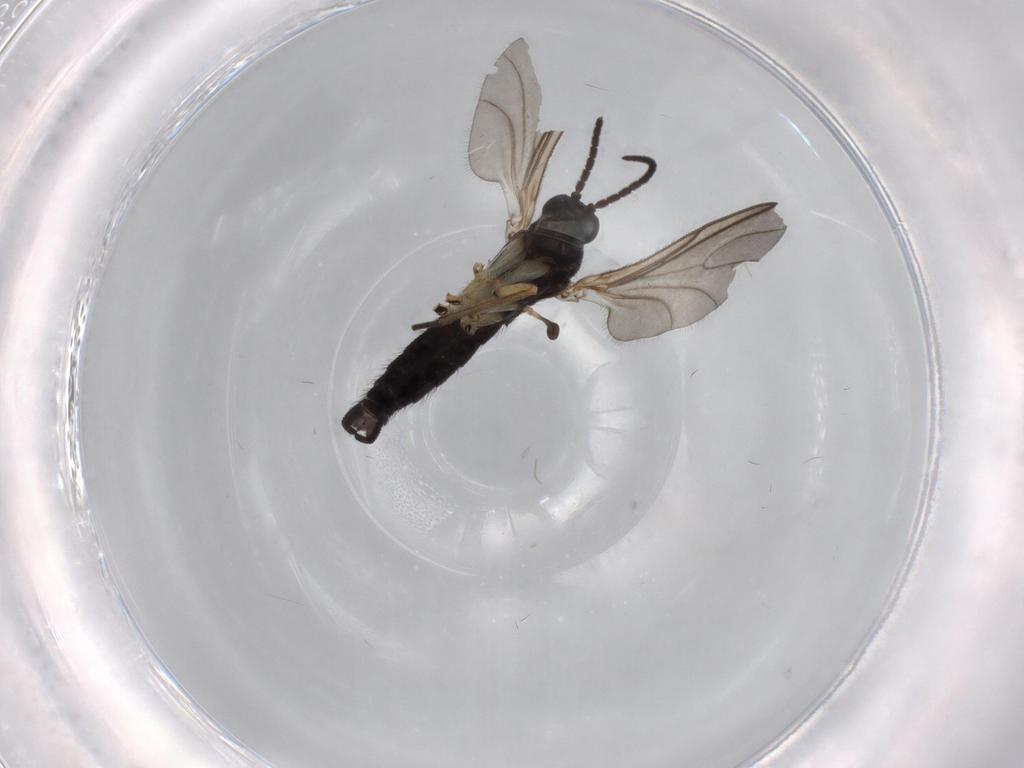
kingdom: Animalia
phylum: Arthropoda
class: Insecta
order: Diptera
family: Sciaridae
